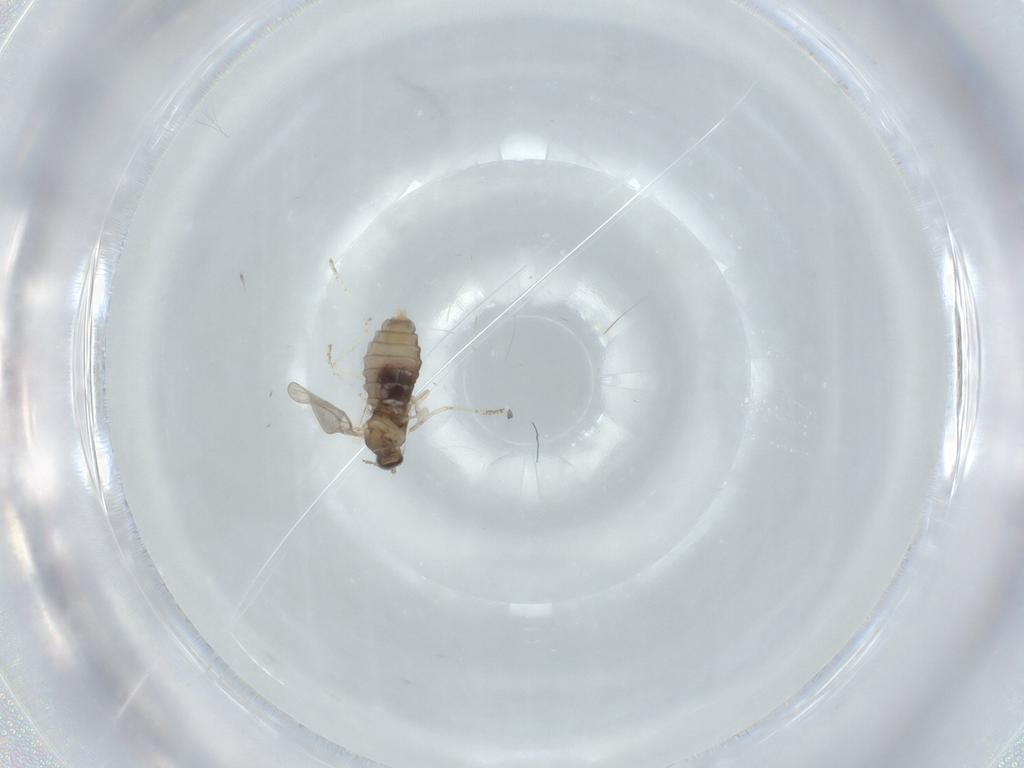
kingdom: Animalia
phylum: Arthropoda
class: Insecta
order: Diptera
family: Cecidomyiidae
